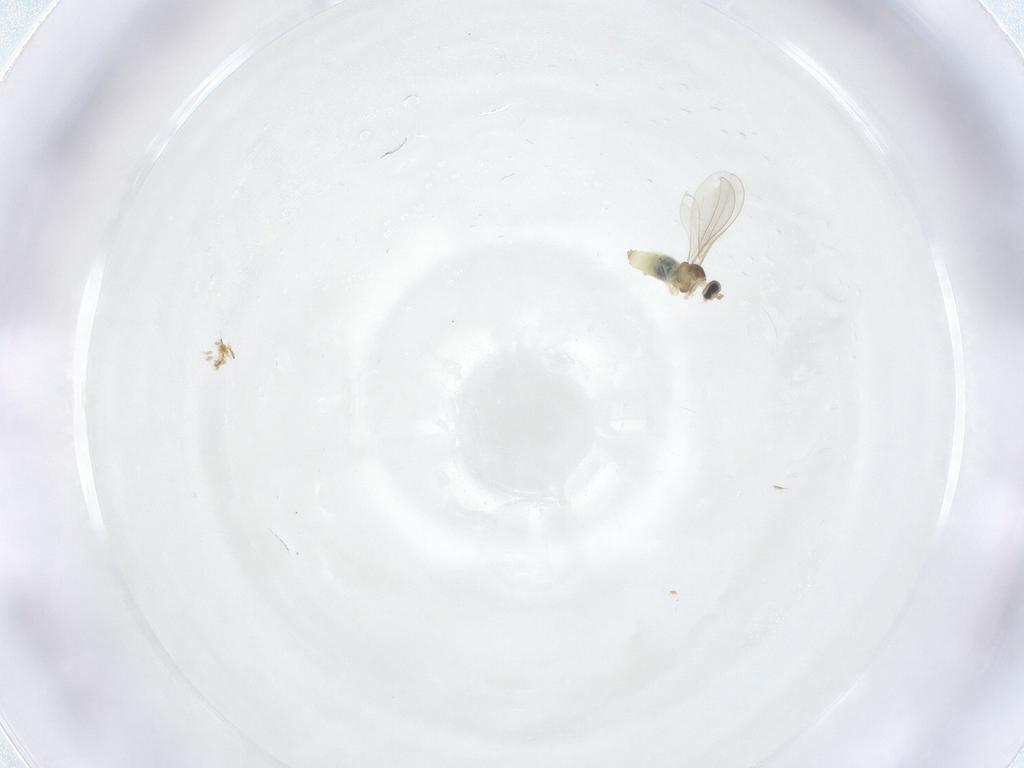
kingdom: Animalia
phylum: Arthropoda
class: Insecta
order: Diptera
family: Cecidomyiidae
